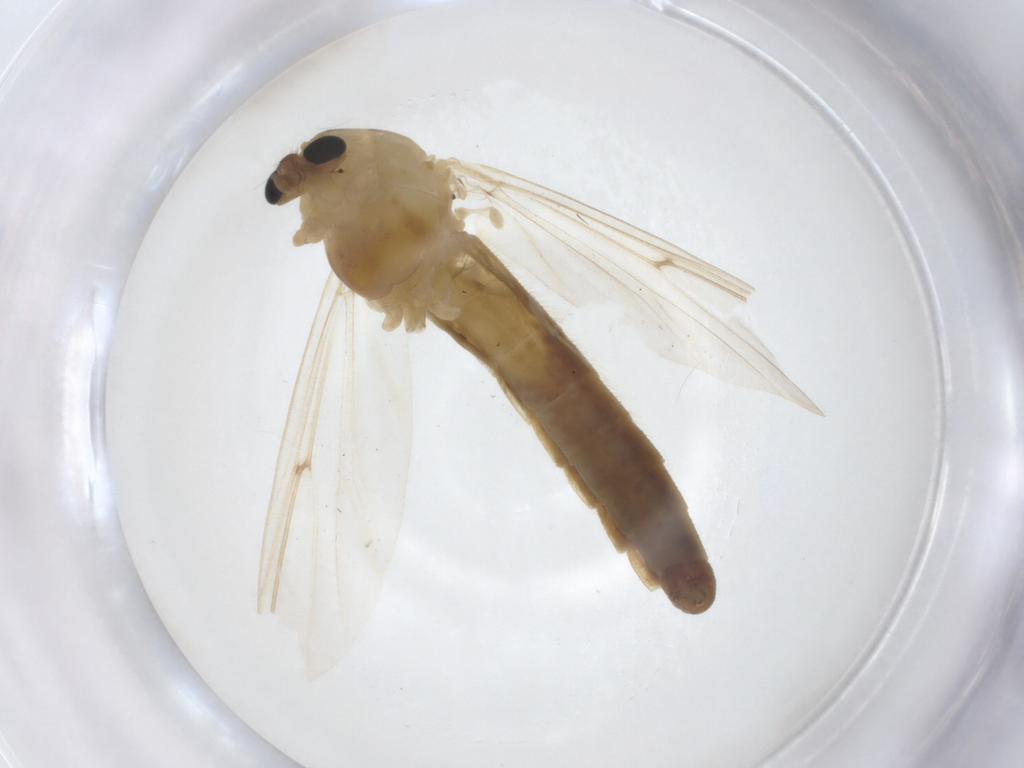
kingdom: Animalia
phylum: Arthropoda
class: Insecta
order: Diptera
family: Chironomidae
